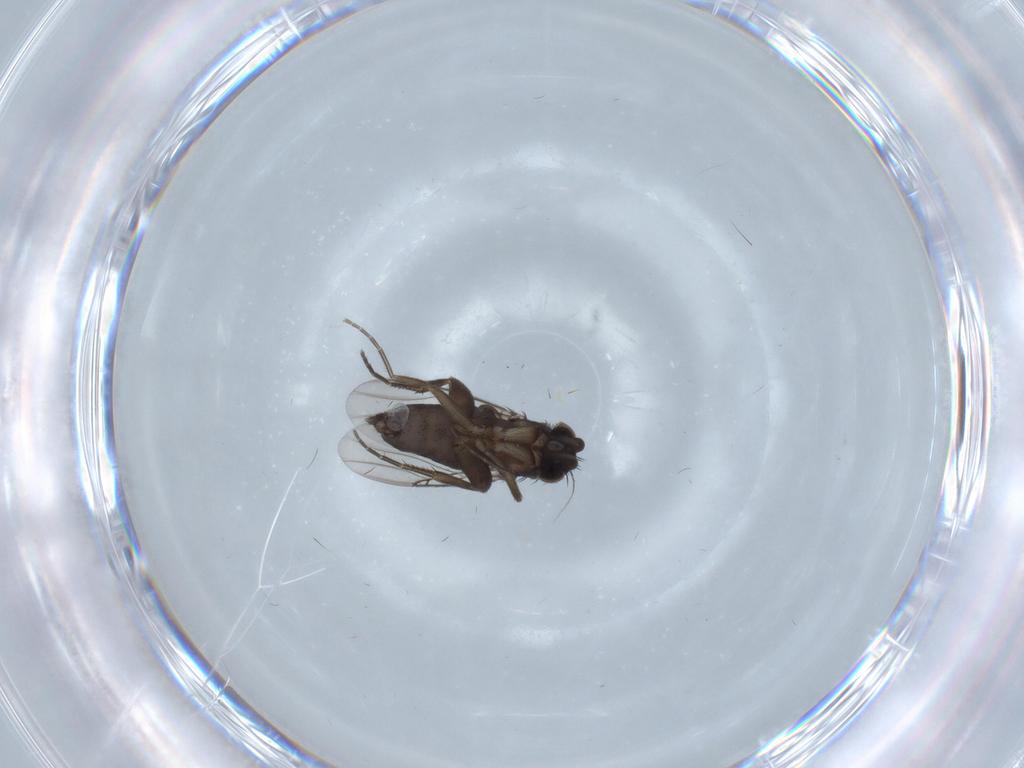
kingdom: Animalia
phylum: Arthropoda
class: Insecta
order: Diptera
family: Phoridae
